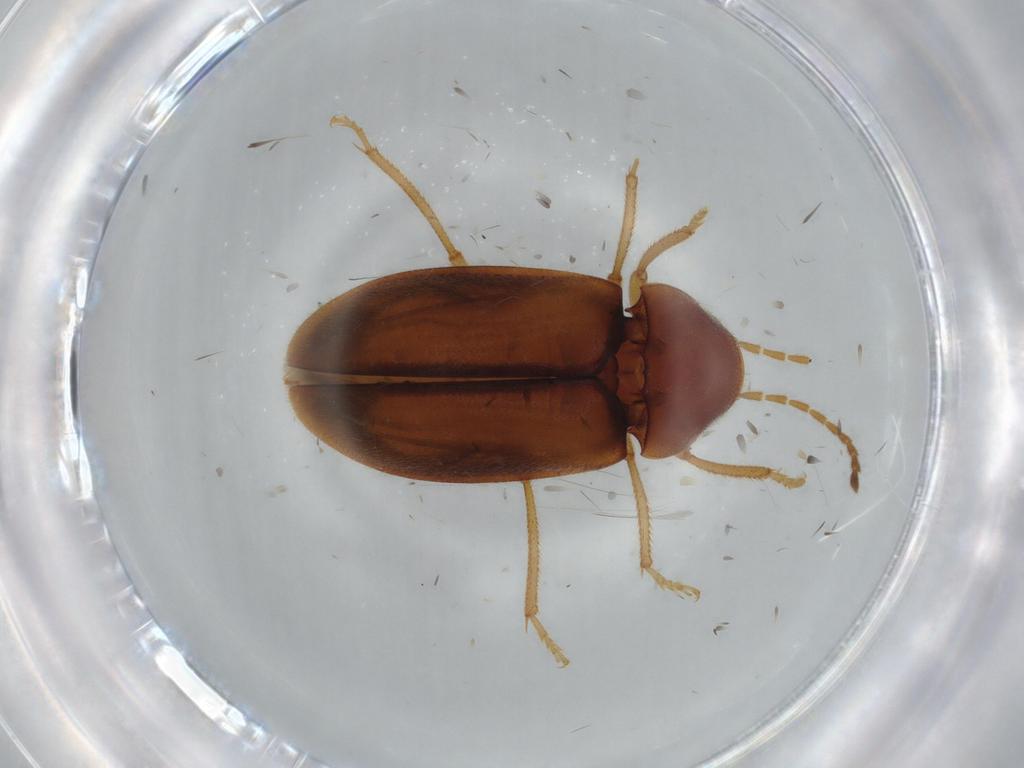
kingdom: Animalia
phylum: Arthropoda
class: Insecta
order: Coleoptera
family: Ptilodactylidae
